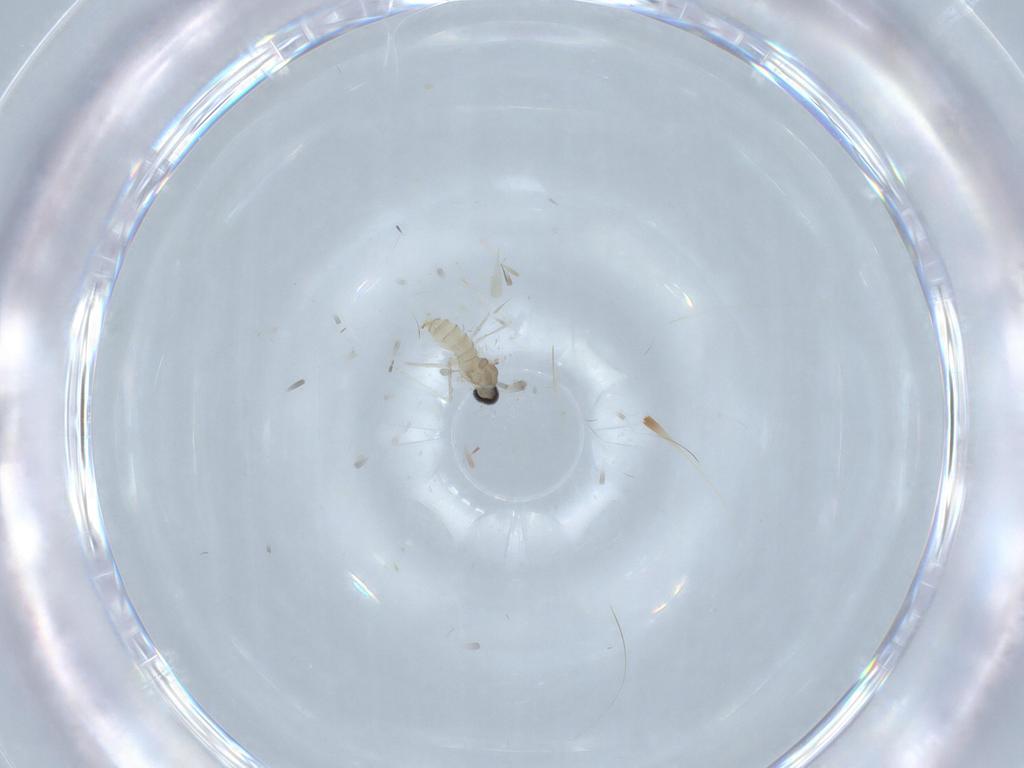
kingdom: Animalia
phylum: Arthropoda
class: Insecta
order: Diptera
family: Cecidomyiidae
